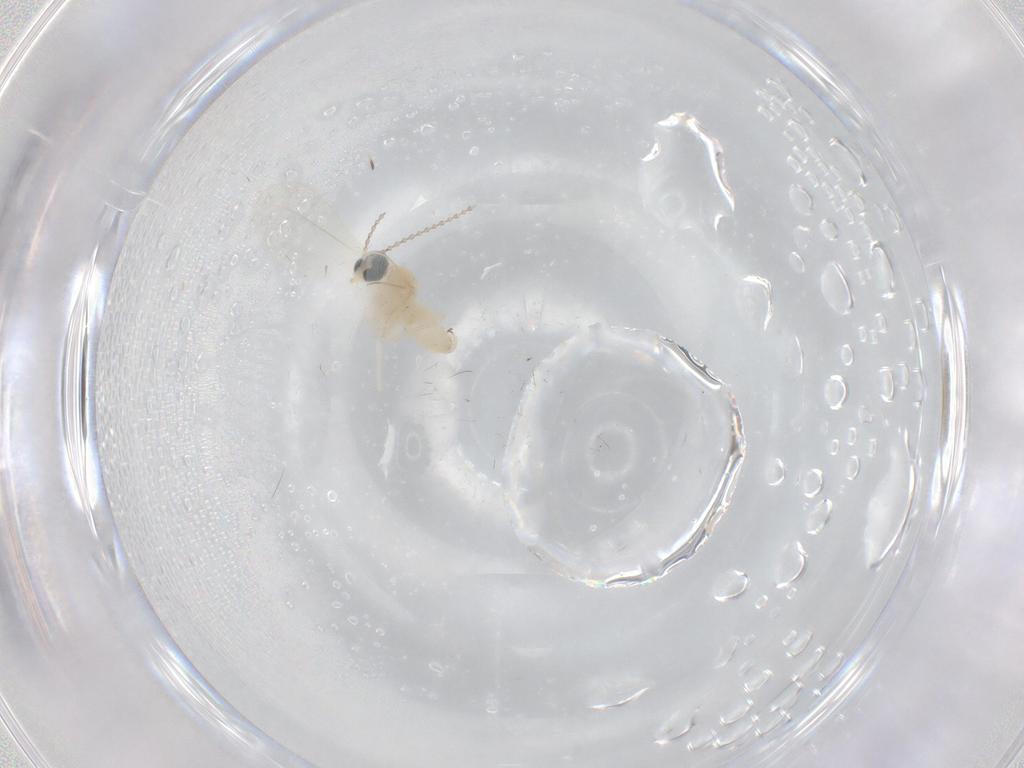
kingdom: Animalia
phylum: Arthropoda
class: Insecta
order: Diptera
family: Cecidomyiidae
